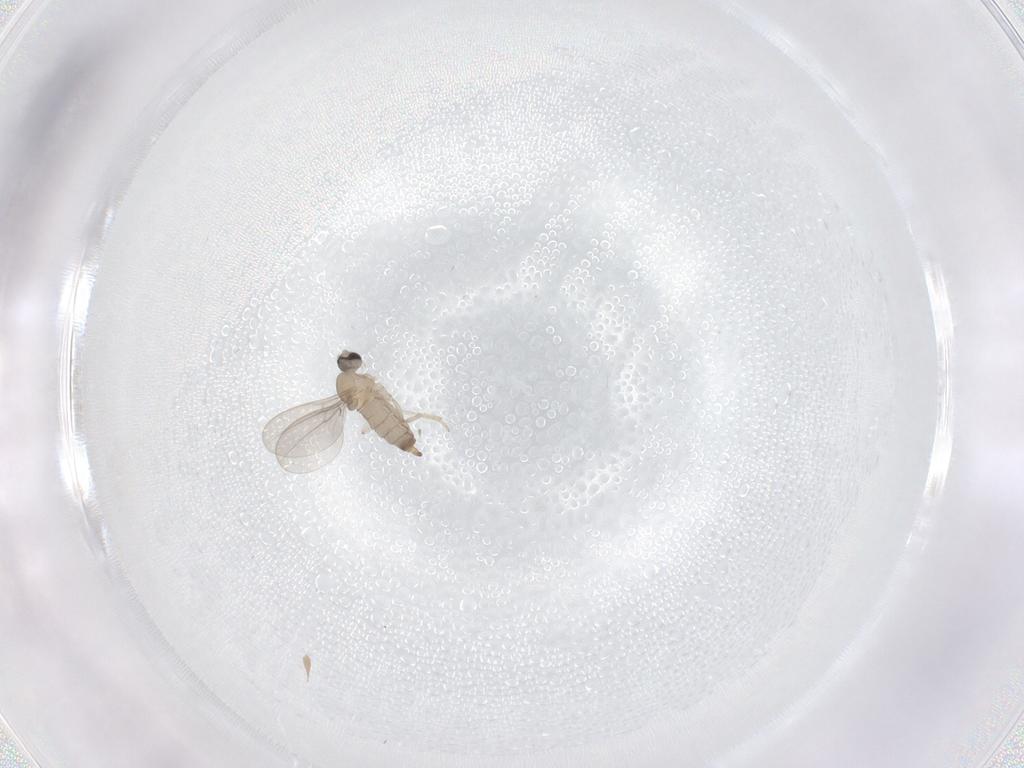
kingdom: Animalia
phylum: Arthropoda
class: Insecta
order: Diptera
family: Cecidomyiidae
